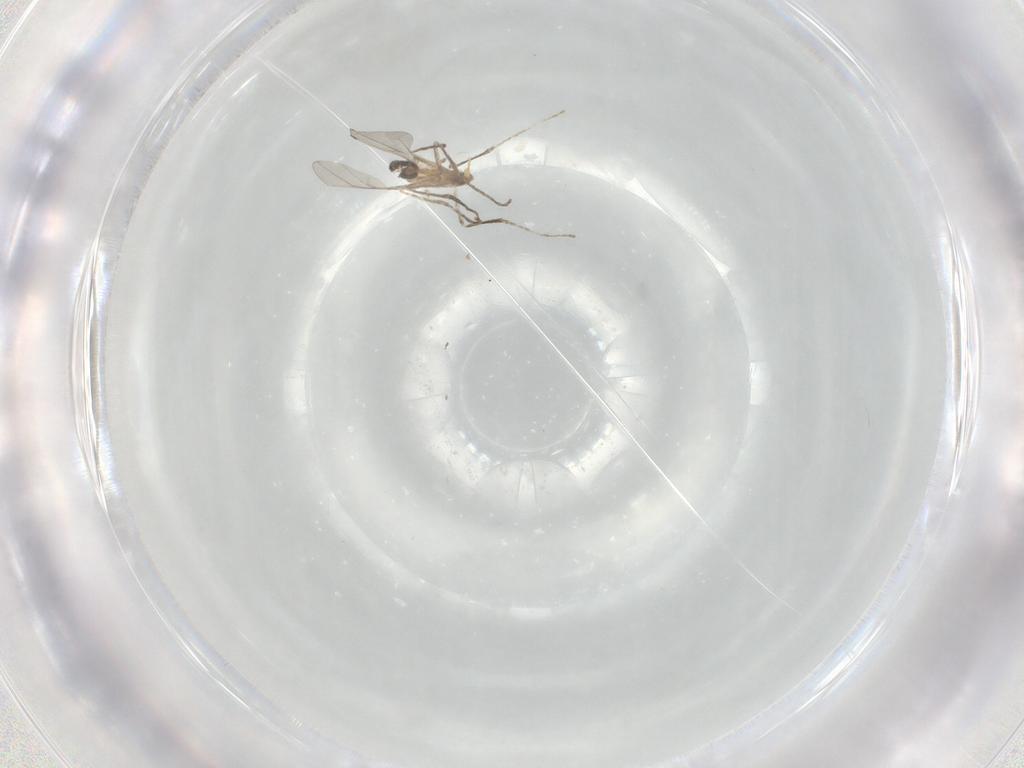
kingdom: Animalia
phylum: Arthropoda
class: Insecta
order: Diptera
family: Cecidomyiidae
